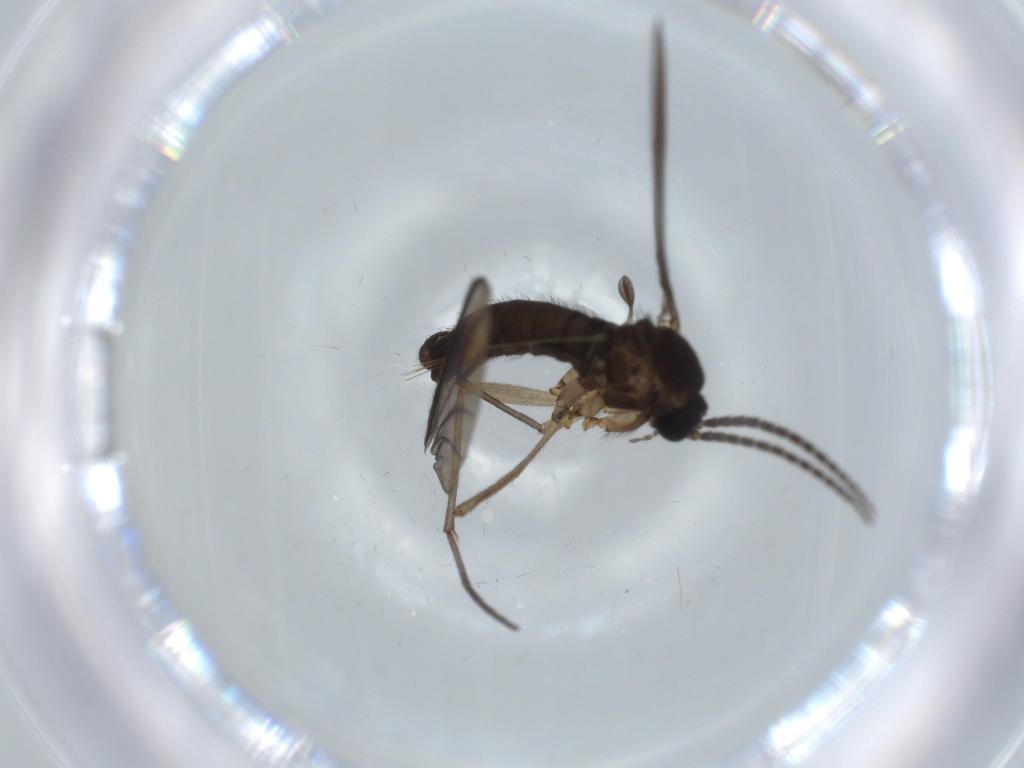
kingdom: Animalia
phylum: Arthropoda
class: Insecta
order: Diptera
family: Sciaridae
